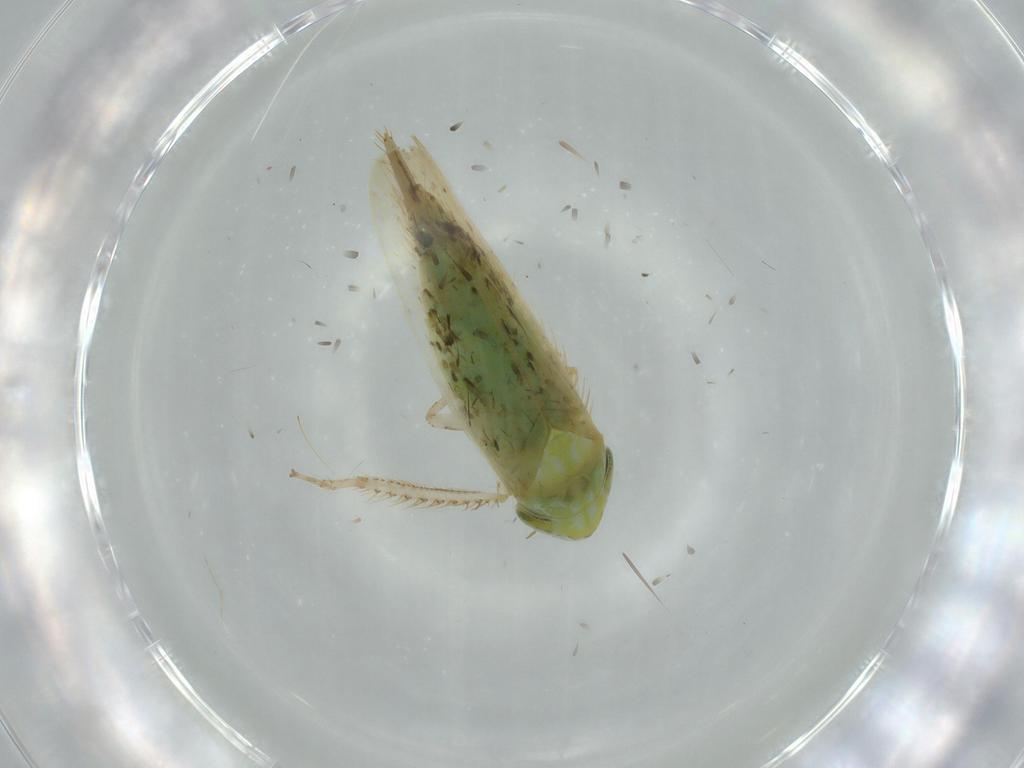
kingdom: Animalia
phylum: Arthropoda
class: Insecta
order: Hemiptera
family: Cicadellidae
